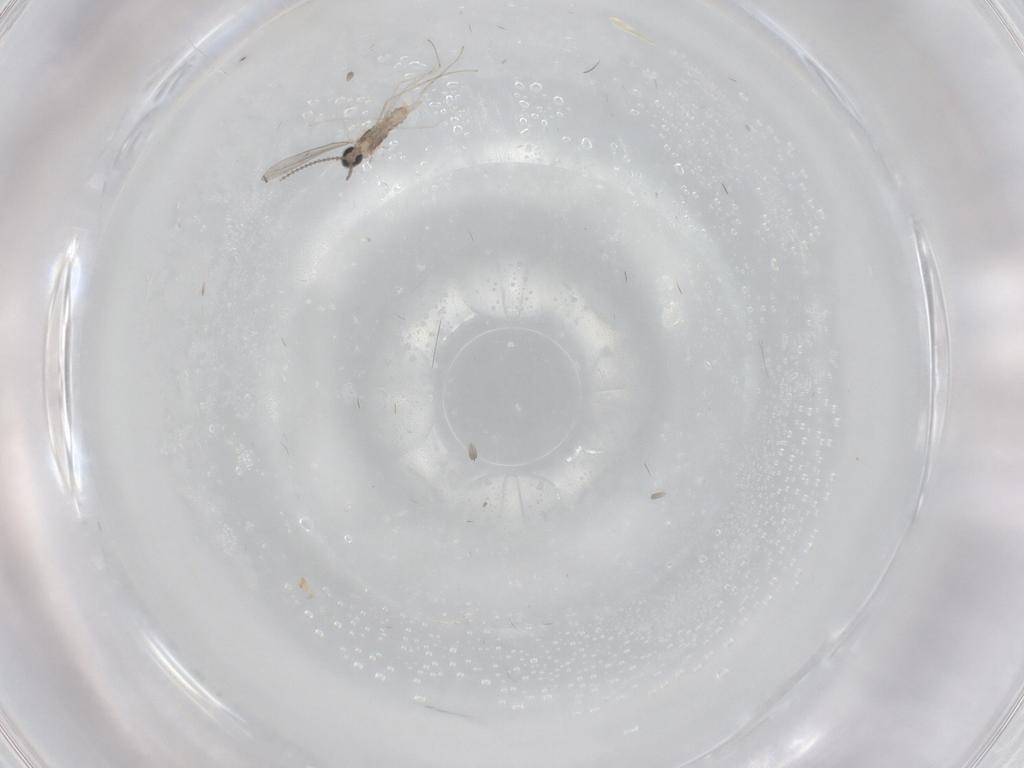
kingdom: Animalia
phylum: Arthropoda
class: Insecta
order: Diptera
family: Cecidomyiidae
